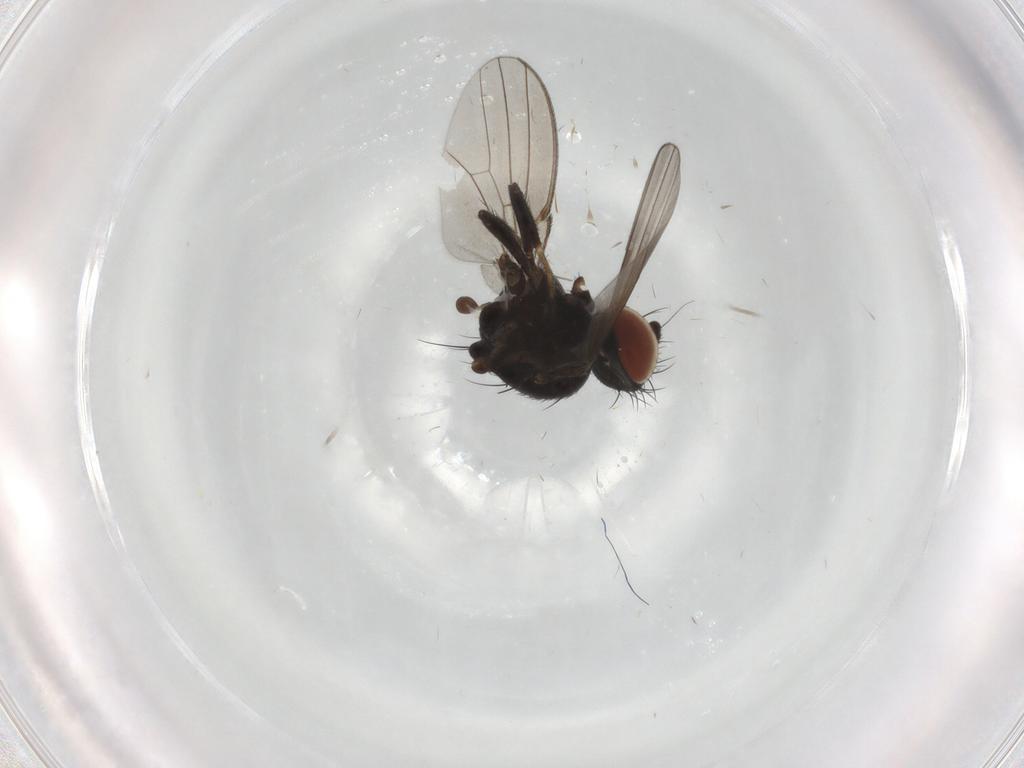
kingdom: Animalia
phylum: Arthropoda
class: Insecta
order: Diptera
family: Milichiidae
